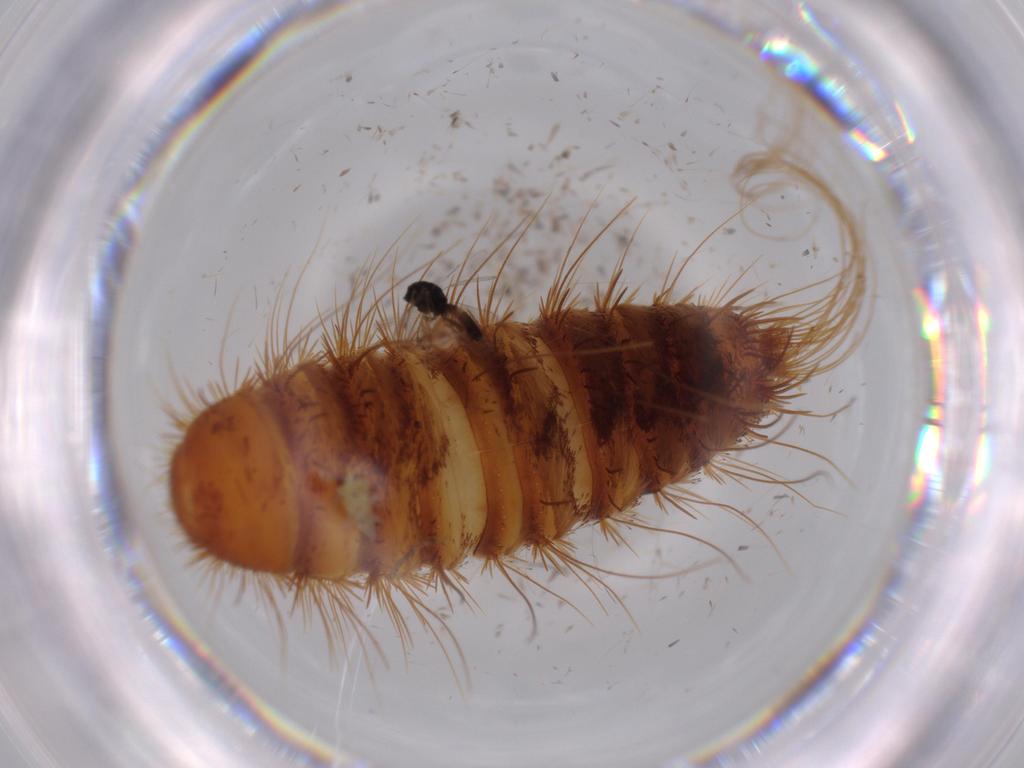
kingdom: Animalia
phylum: Arthropoda
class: Insecta
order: Coleoptera
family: Dermestidae
